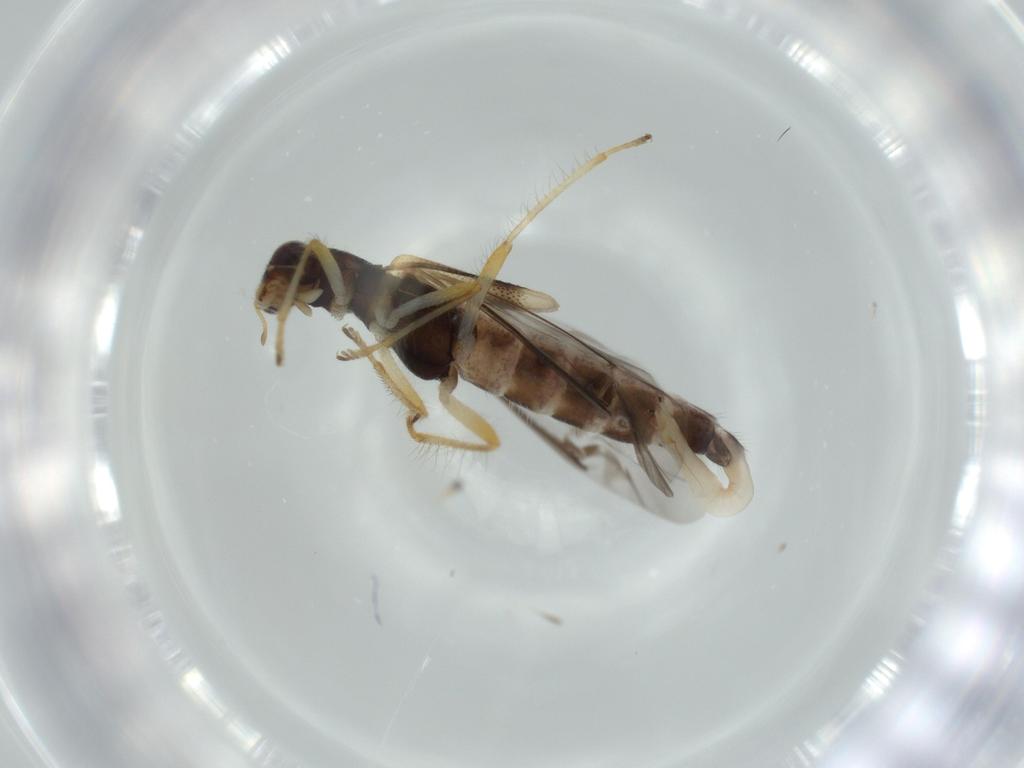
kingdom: Animalia
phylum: Arthropoda
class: Insecta
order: Coleoptera
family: Cleridae
